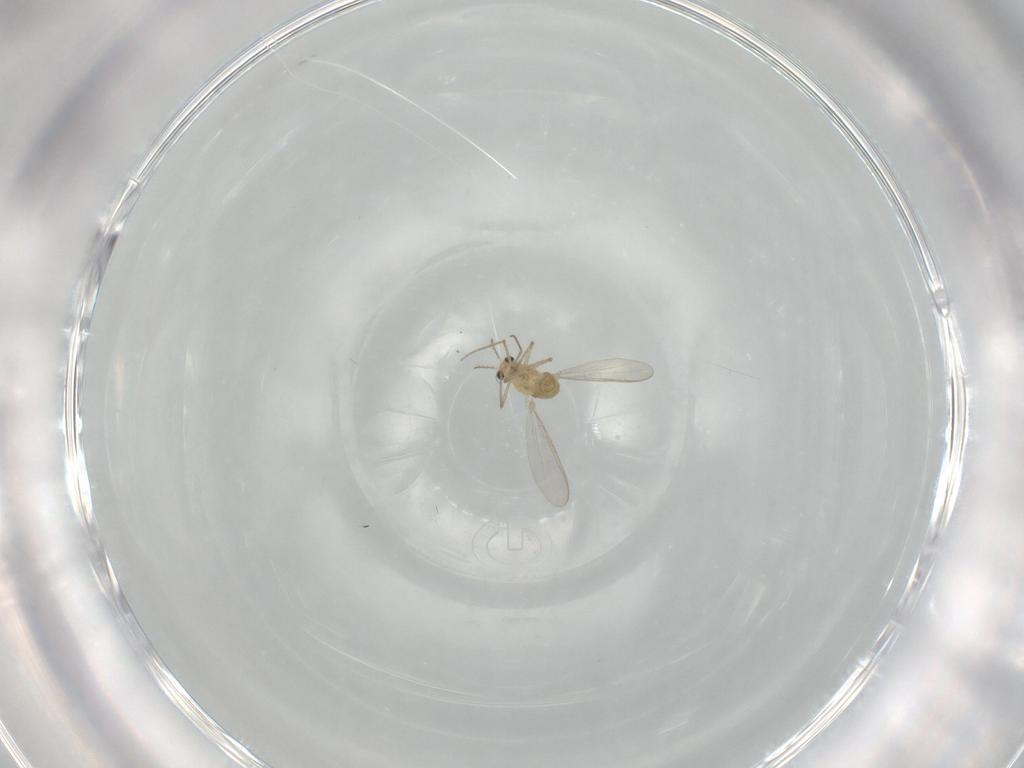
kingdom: Animalia
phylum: Arthropoda
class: Insecta
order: Diptera
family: Chironomidae
